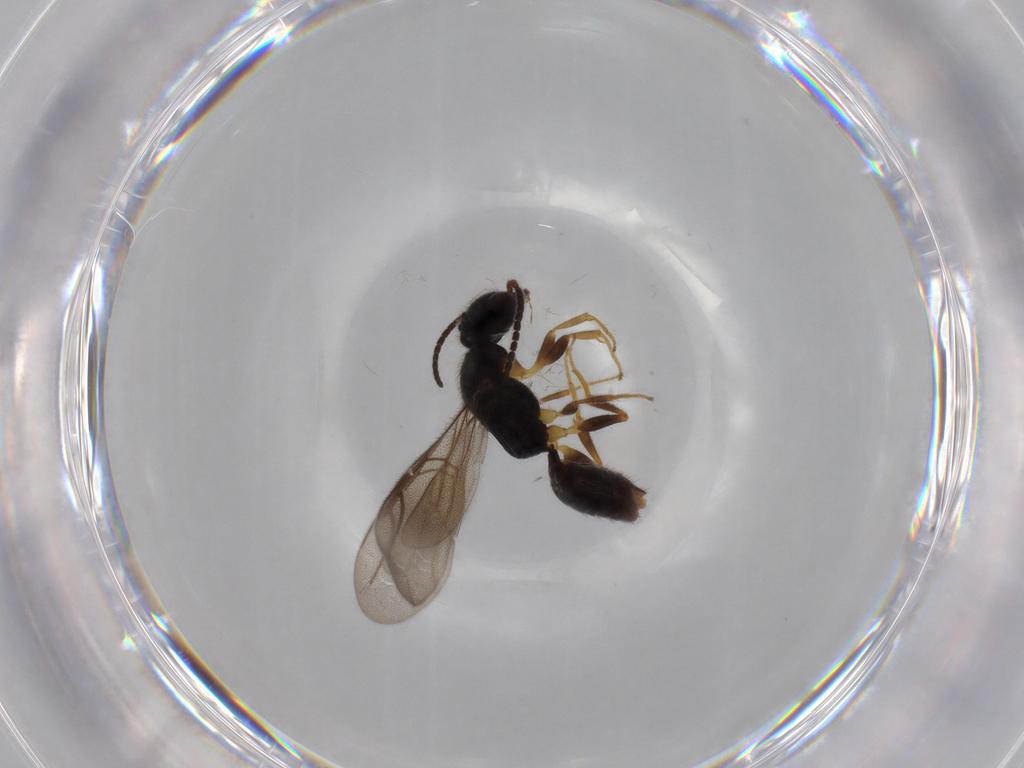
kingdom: Animalia
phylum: Arthropoda
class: Insecta
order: Hymenoptera
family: Bethylidae
